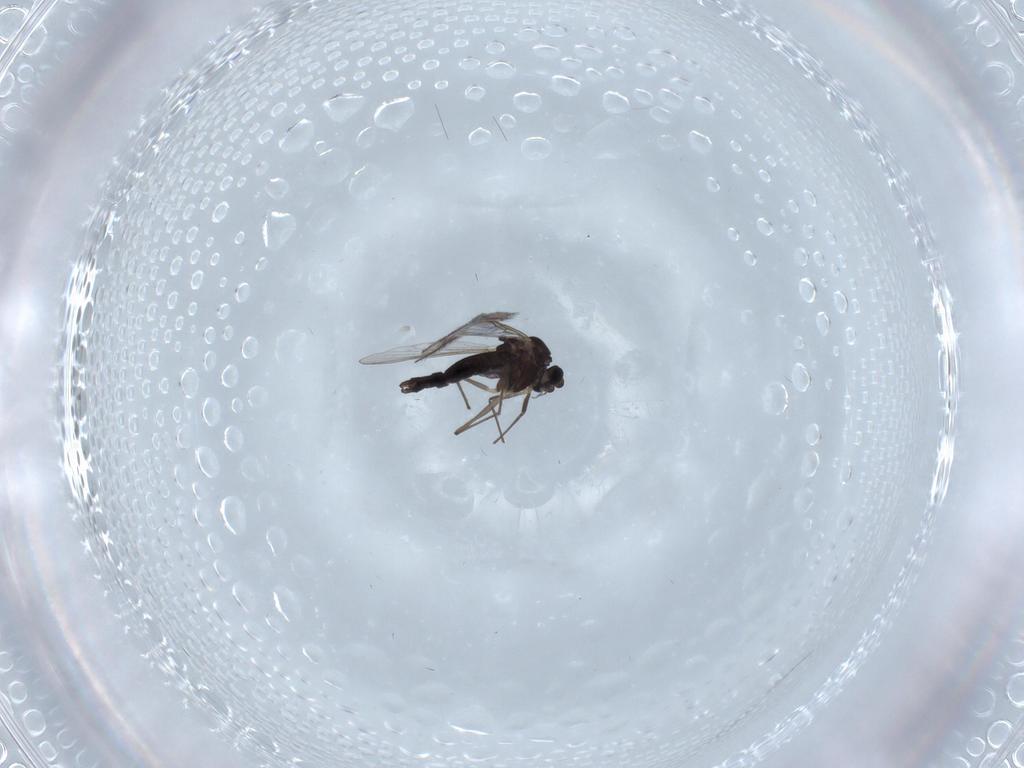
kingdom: Animalia
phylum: Arthropoda
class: Insecta
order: Diptera
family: Chironomidae
